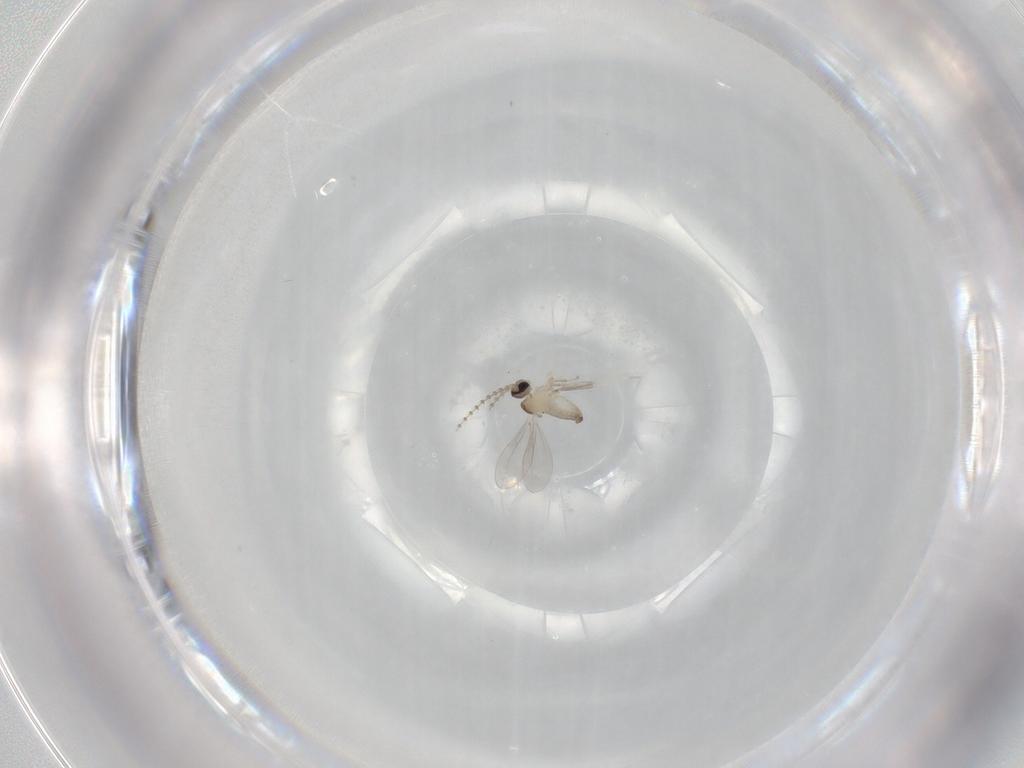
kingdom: Animalia
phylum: Arthropoda
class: Insecta
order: Diptera
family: Cecidomyiidae
